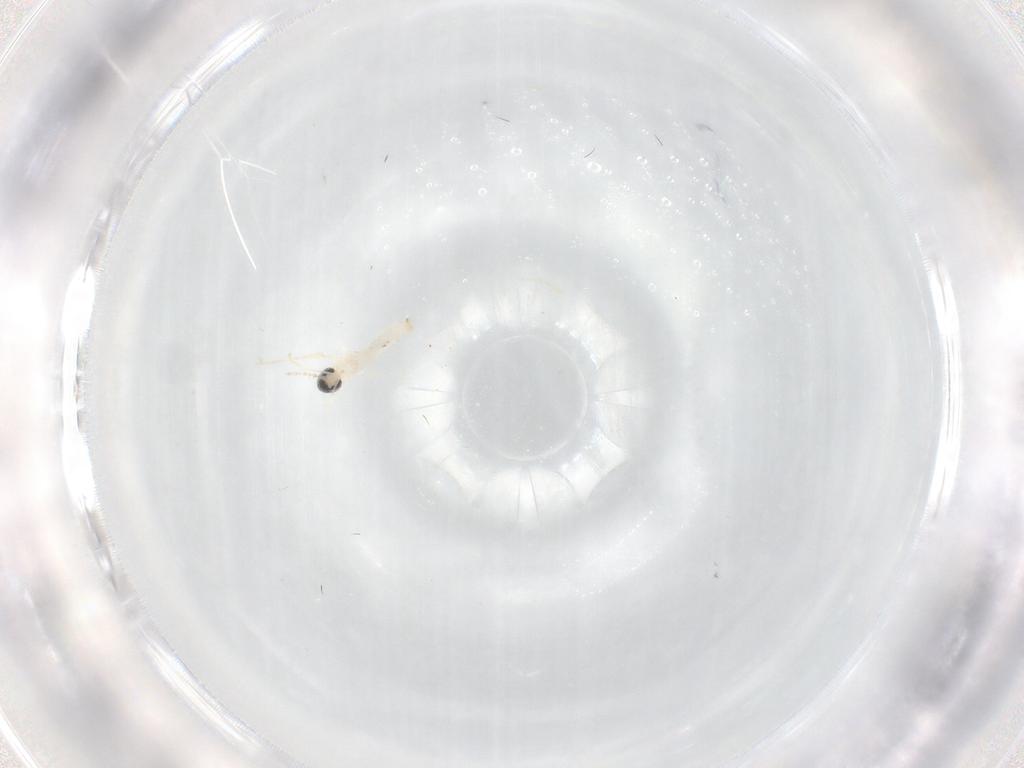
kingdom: Animalia
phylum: Arthropoda
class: Insecta
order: Diptera
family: Cecidomyiidae
